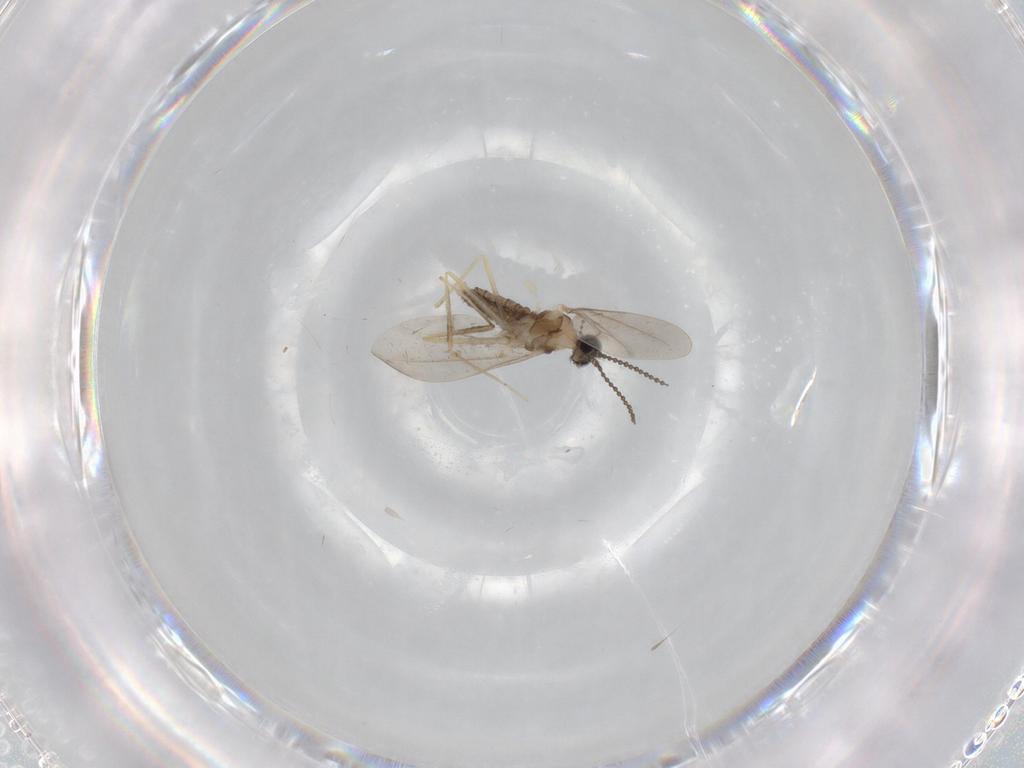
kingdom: Animalia
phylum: Arthropoda
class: Insecta
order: Diptera
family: Cecidomyiidae
